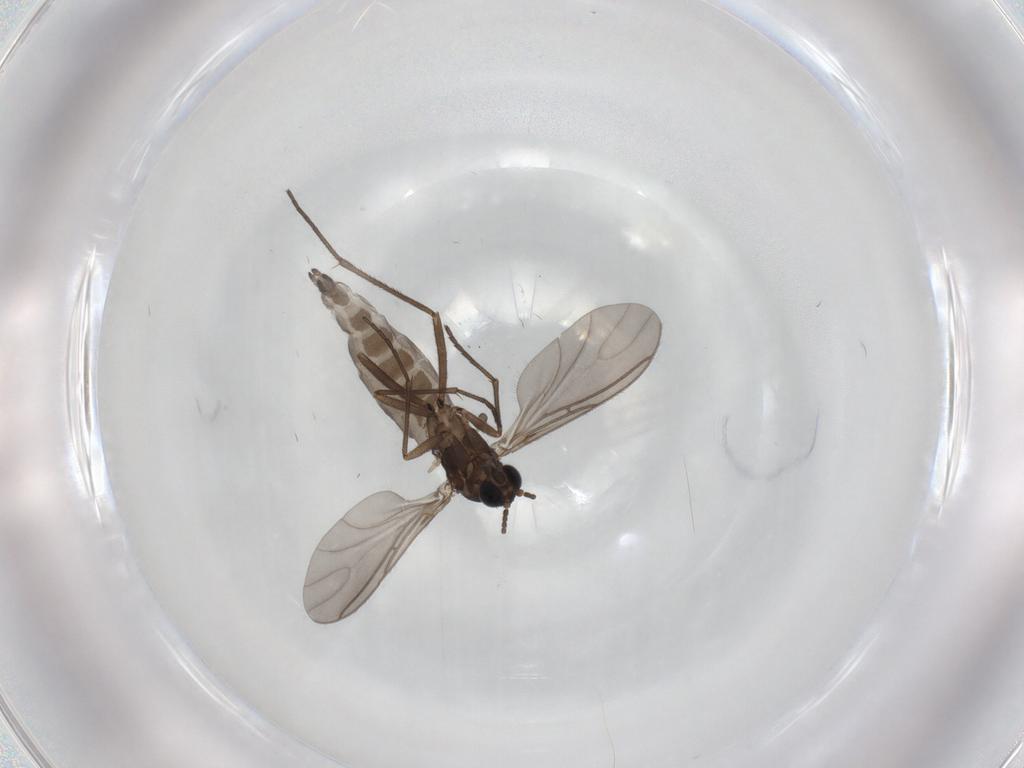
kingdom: Animalia
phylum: Arthropoda
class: Insecta
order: Diptera
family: Sciaridae
